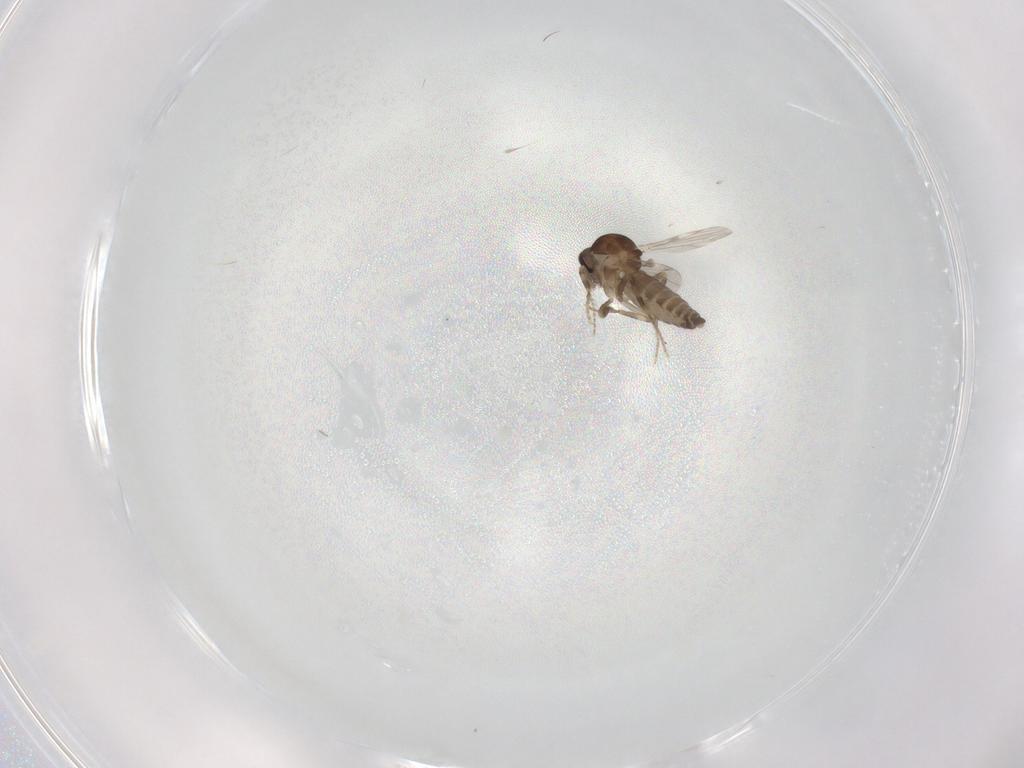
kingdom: Animalia
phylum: Arthropoda
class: Insecta
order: Diptera
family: Ceratopogonidae
